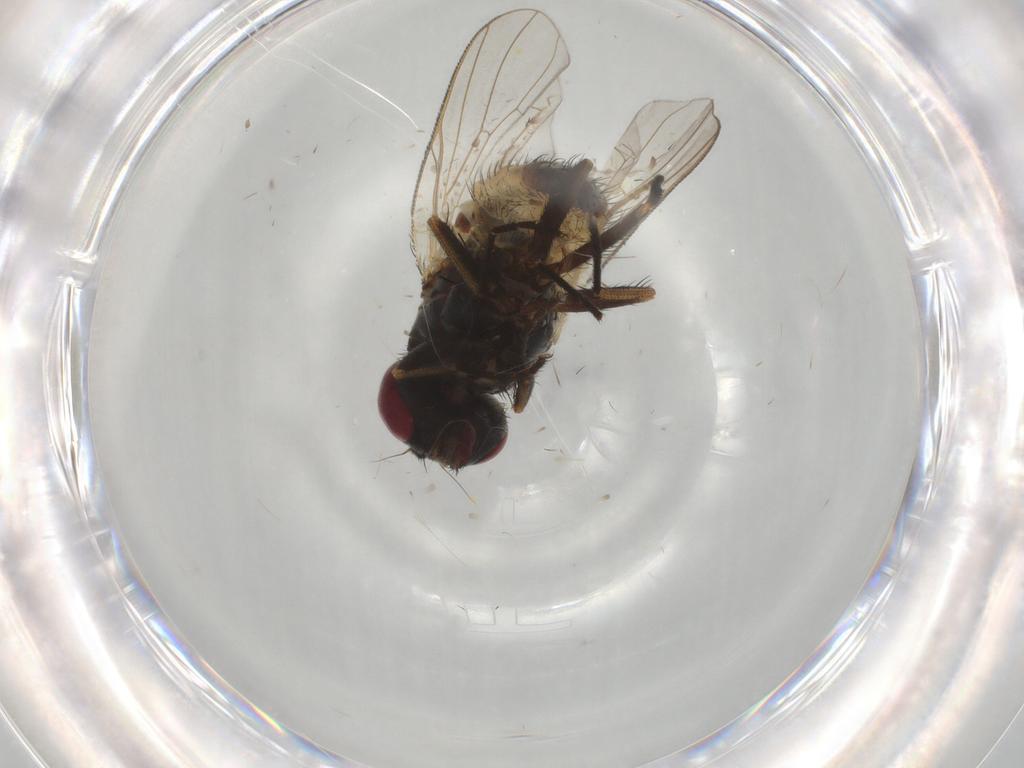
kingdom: Animalia
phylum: Arthropoda
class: Insecta
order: Diptera
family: Muscidae
